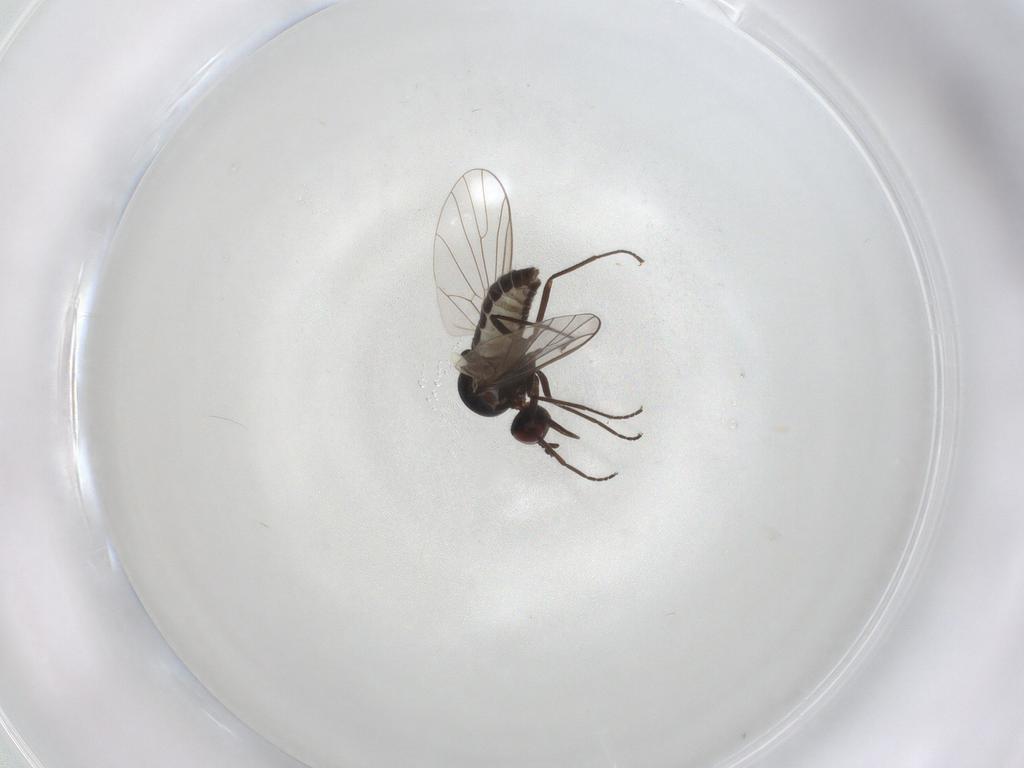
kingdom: Animalia
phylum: Arthropoda
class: Insecta
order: Diptera
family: Bombyliidae
